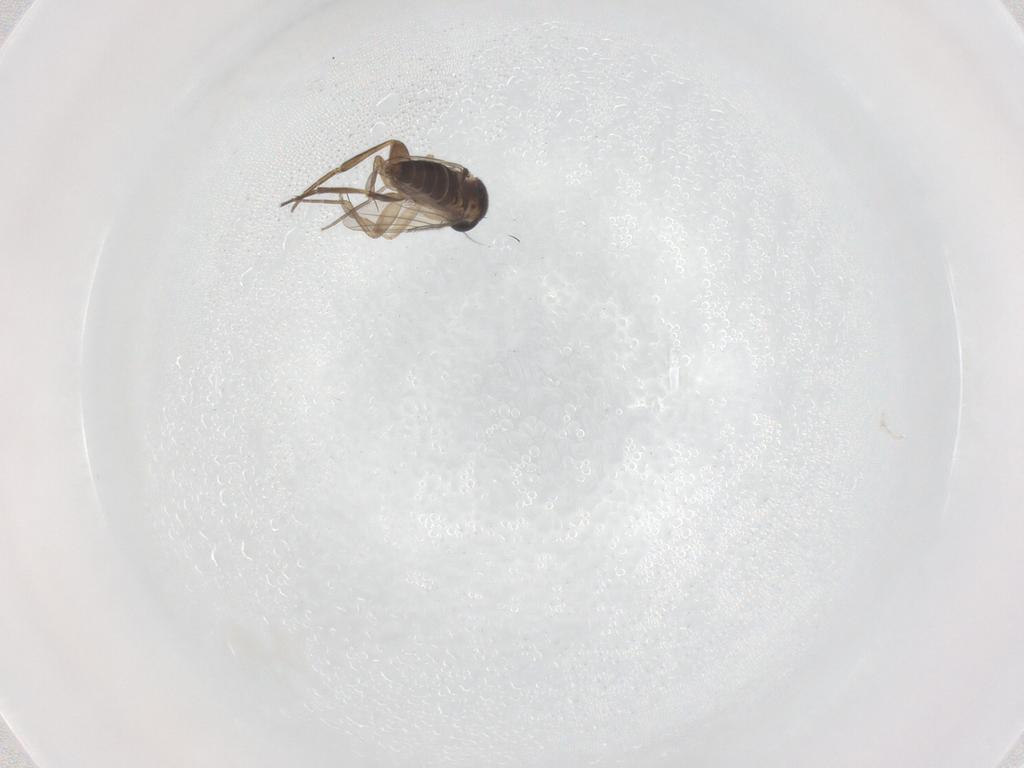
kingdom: Animalia
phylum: Arthropoda
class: Insecta
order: Diptera
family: Phoridae
